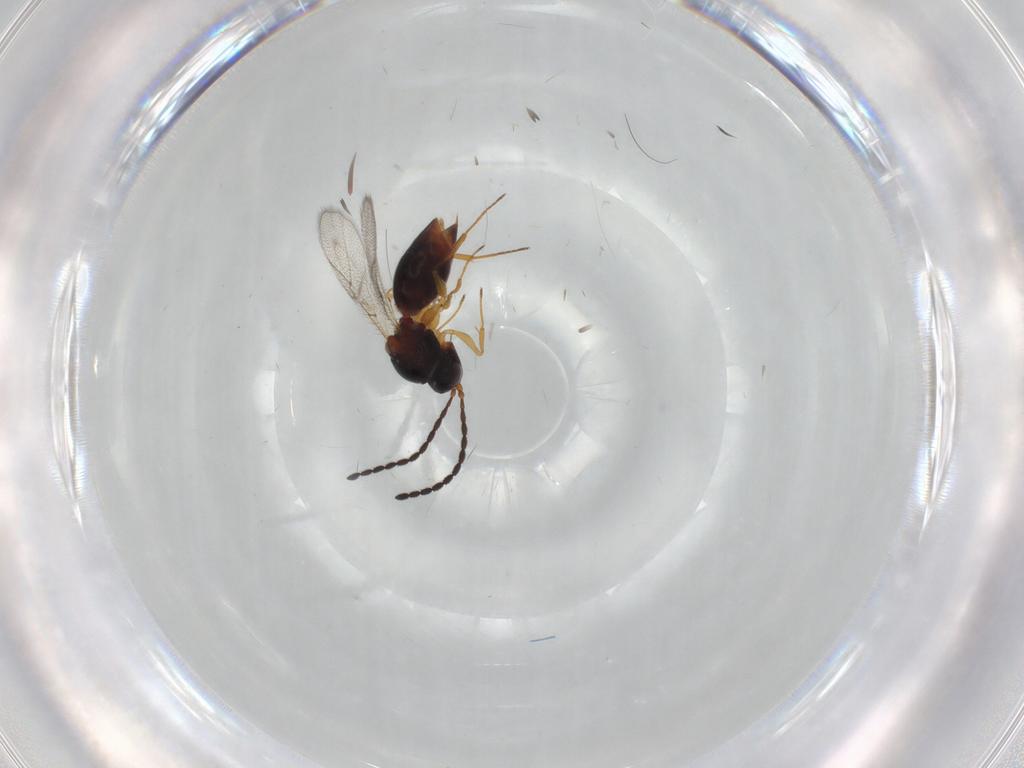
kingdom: Animalia
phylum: Arthropoda
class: Insecta
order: Hymenoptera
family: Figitidae
